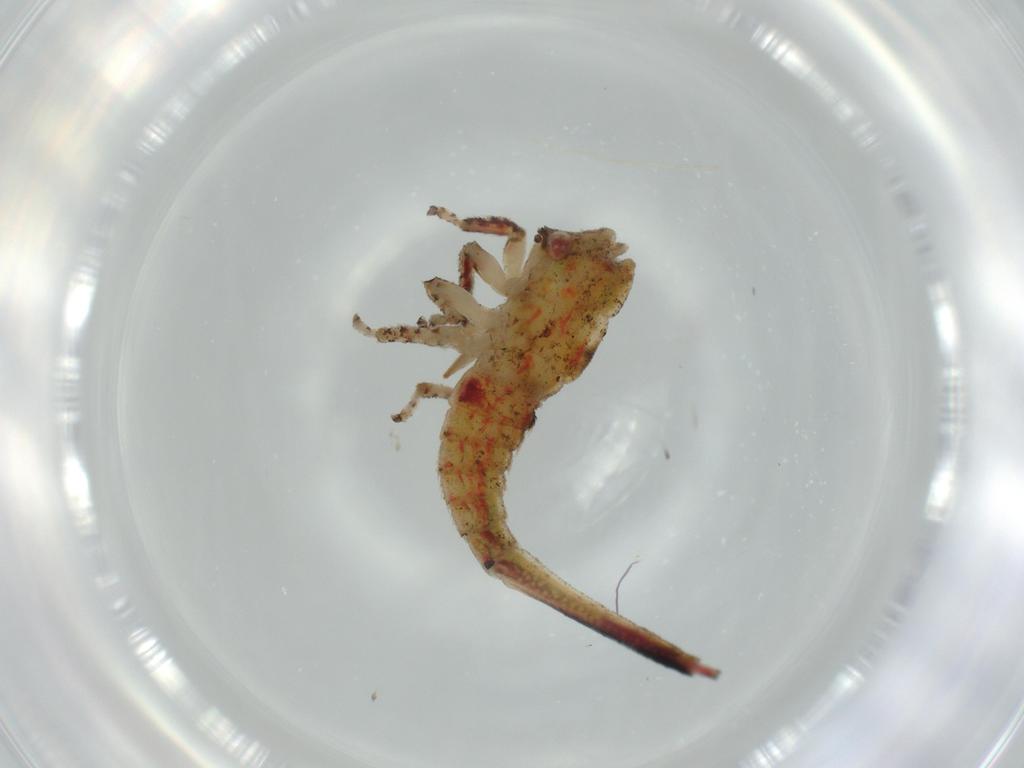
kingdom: Animalia
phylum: Arthropoda
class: Insecta
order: Hemiptera
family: Membracidae
